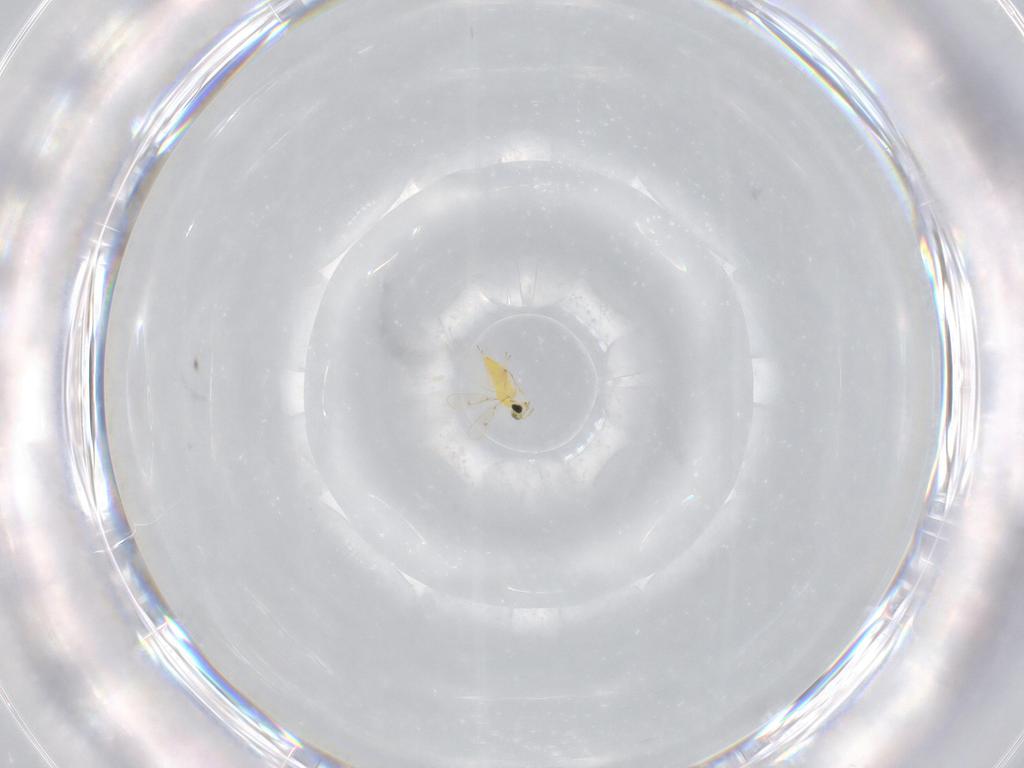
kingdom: Animalia
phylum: Arthropoda
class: Insecta
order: Hymenoptera
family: Trichogrammatidae
